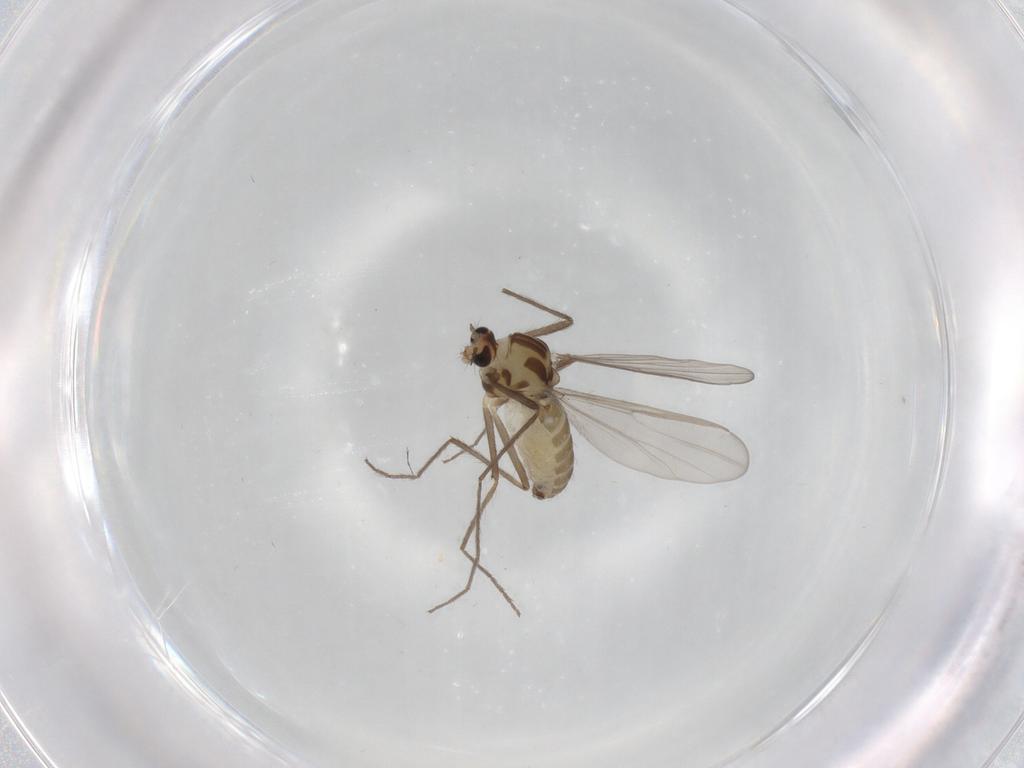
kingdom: Animalia
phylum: Arthropoda
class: Insecta
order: Diptera
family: Chironomidae
